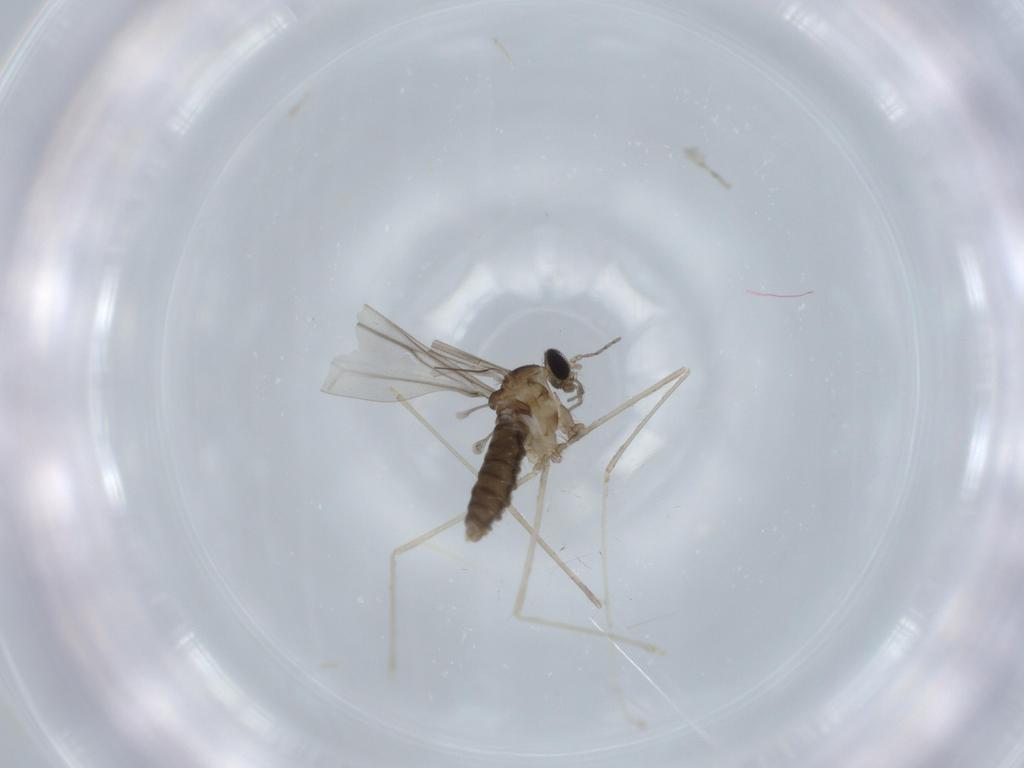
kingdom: Animalia
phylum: Arthropoda
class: Insecta
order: Diptera
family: Cecidomyiidae
